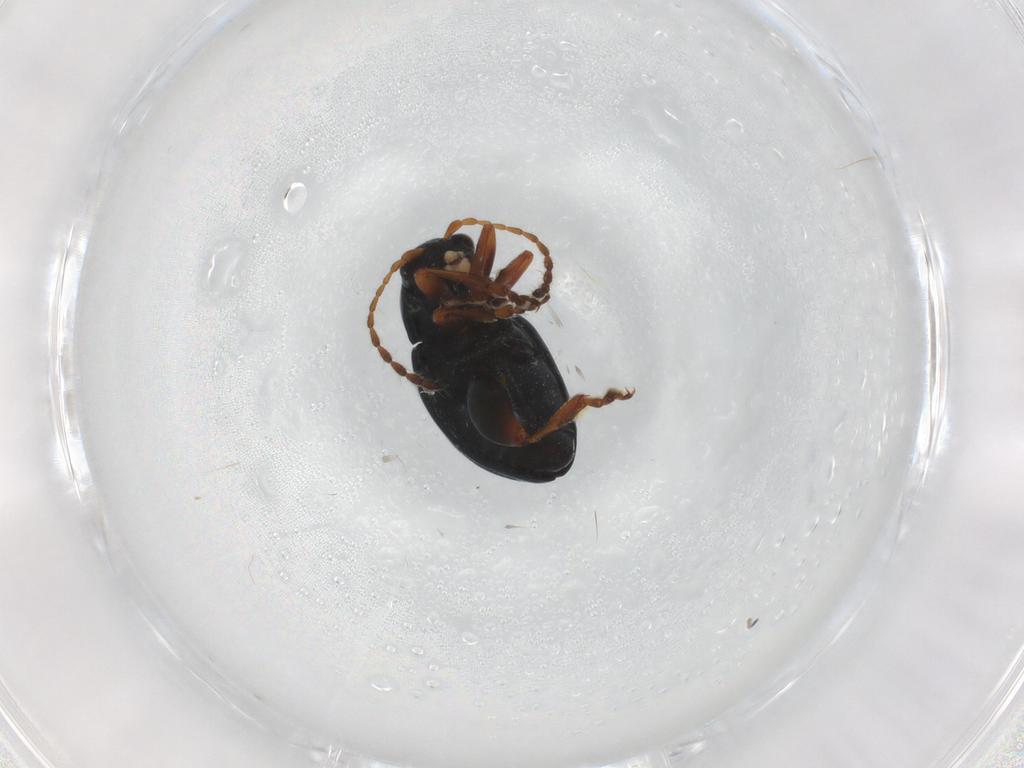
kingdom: Animalia
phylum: Arthropoda
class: Insecta
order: Coleoptera
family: Chrysomelidae
